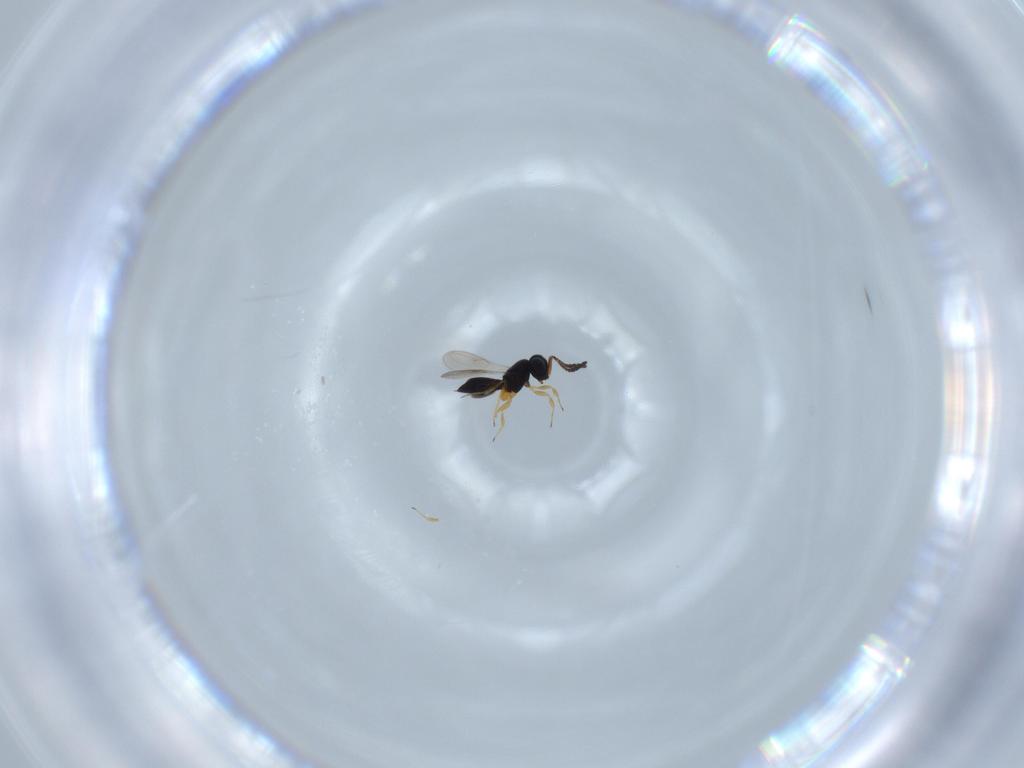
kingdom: Animalia
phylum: Arthropoda
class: Insecta
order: Hymenoptera
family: Scelionidae
